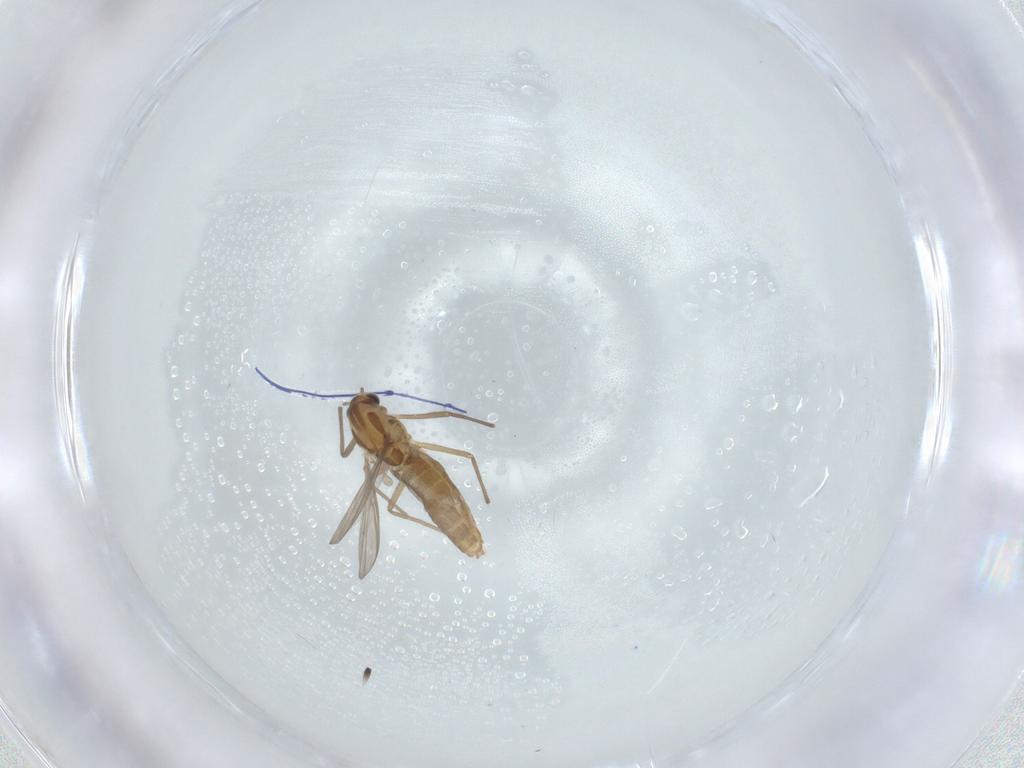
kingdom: Animalia
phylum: Arthropoda
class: Insecta
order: Diptera
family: Chironomidae
